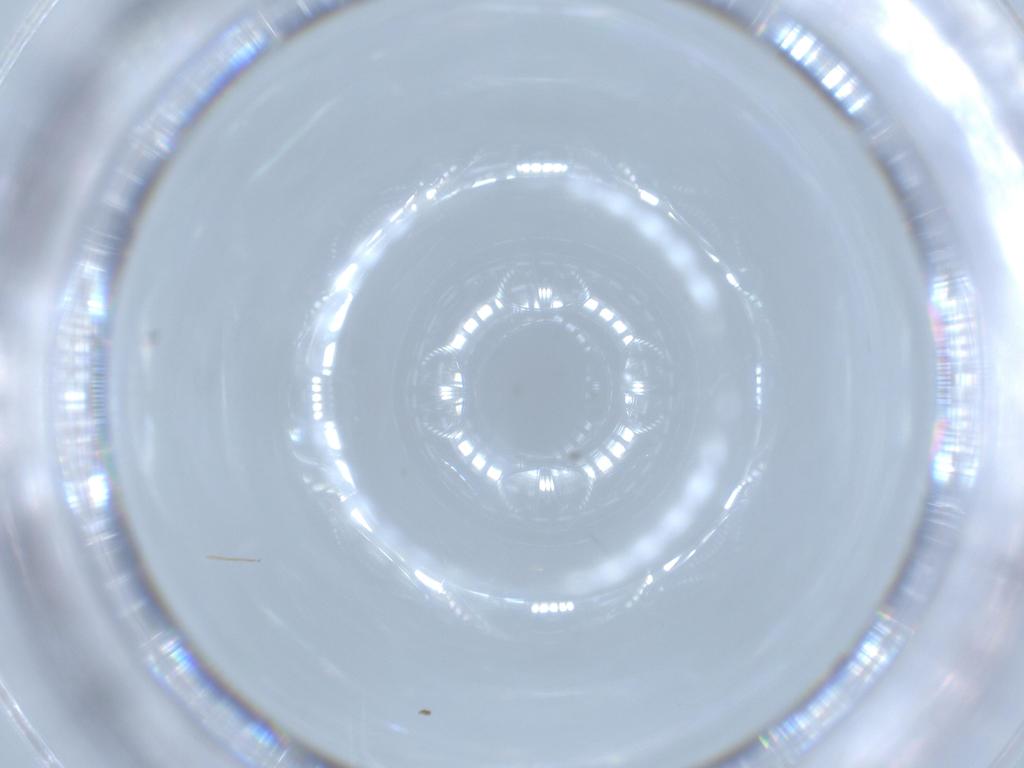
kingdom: Animalia
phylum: Arthropoda
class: Insecta
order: Diptera
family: Chironomidae
